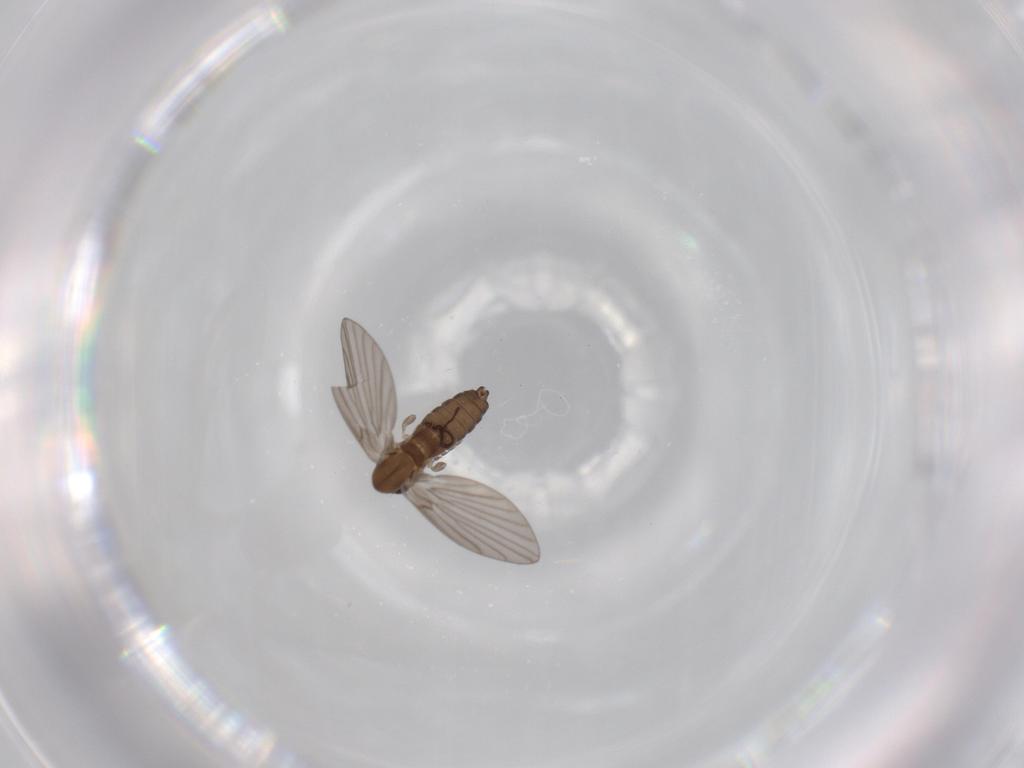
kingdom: Animalia
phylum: Arthropoda
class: Insecta
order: Diptera
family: Psychodidae
